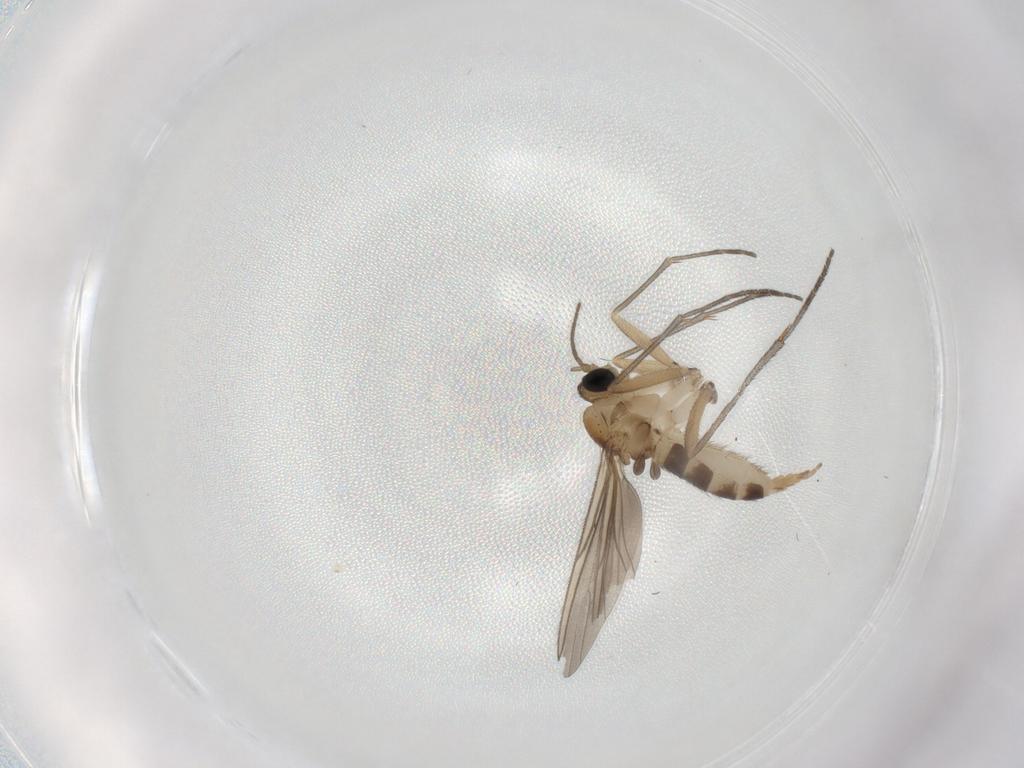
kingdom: Animalia
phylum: Arthropoda
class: Insecta
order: Diptera
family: Sciaridae
